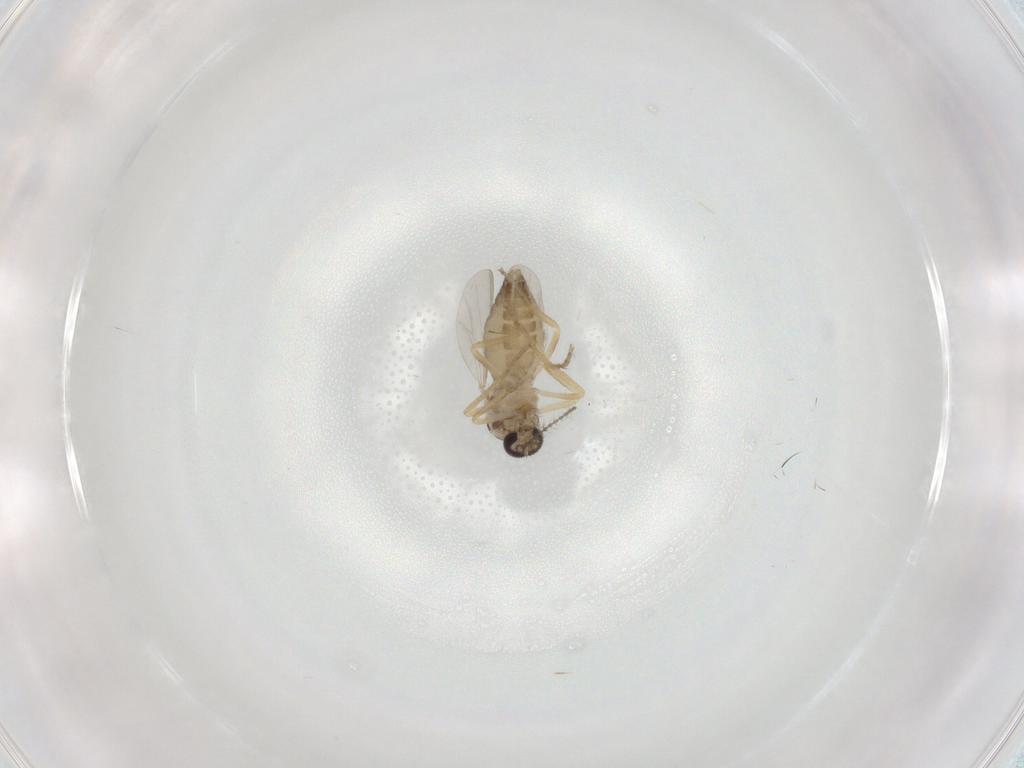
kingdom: Animalia
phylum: Arthropoda
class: Insecta
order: Diptera
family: Ceratopogonidae
